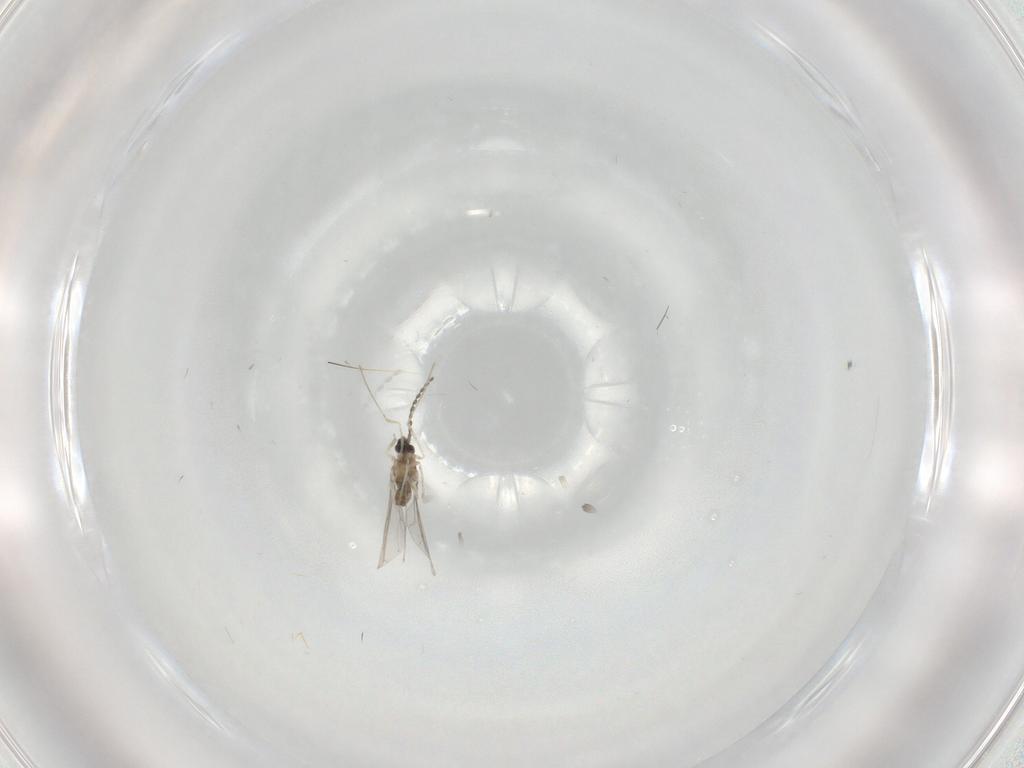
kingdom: Animalia
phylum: Arthropoda
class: Insecta
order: Diptera
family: Cecidomyiidae
